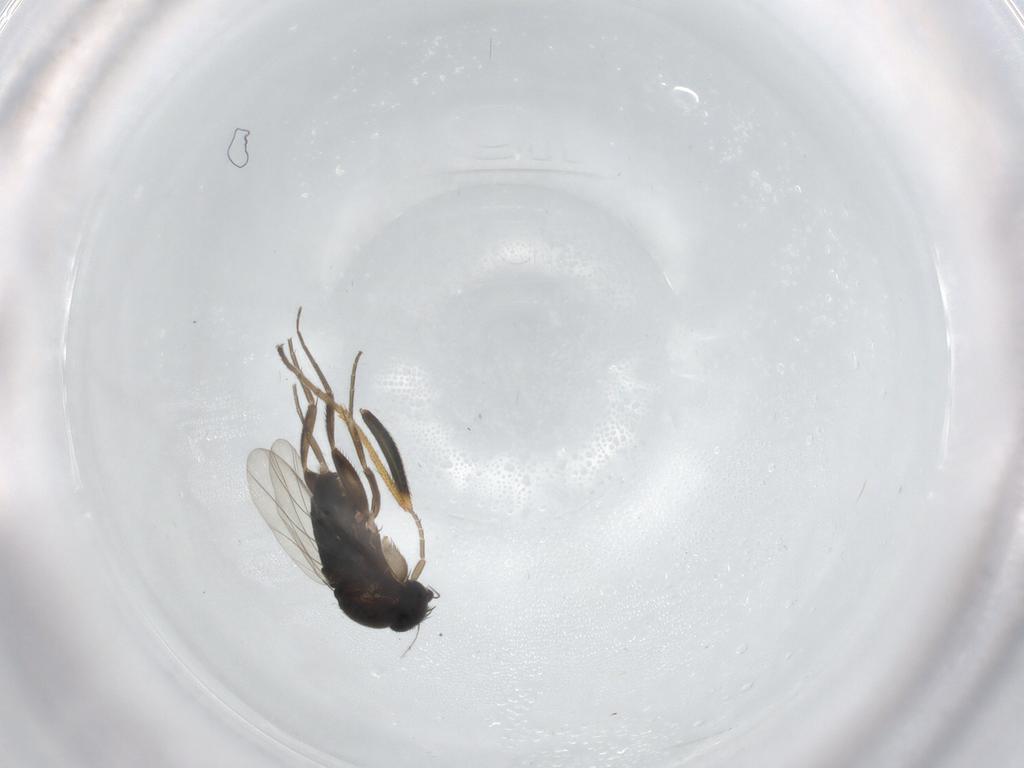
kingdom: Animalia
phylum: Arthropoda
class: Insecta
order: Diptera
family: Phoridae
